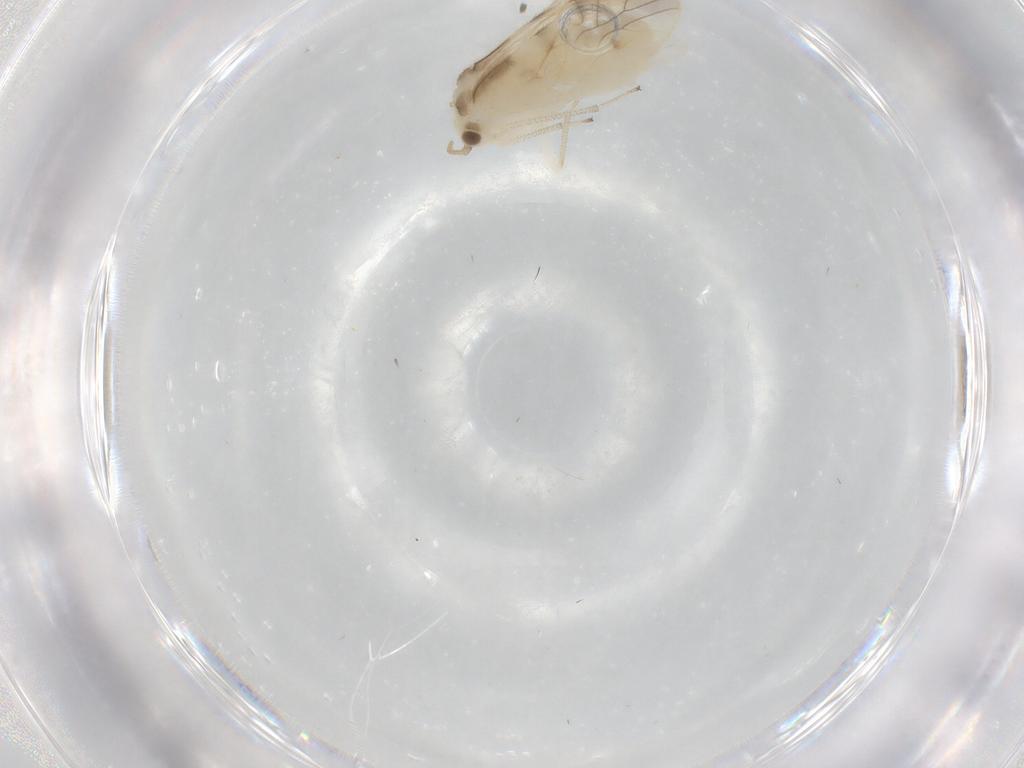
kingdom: Animalia
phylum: Arthropoda
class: Insecta
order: Psocodea
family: Caeciliusidae
